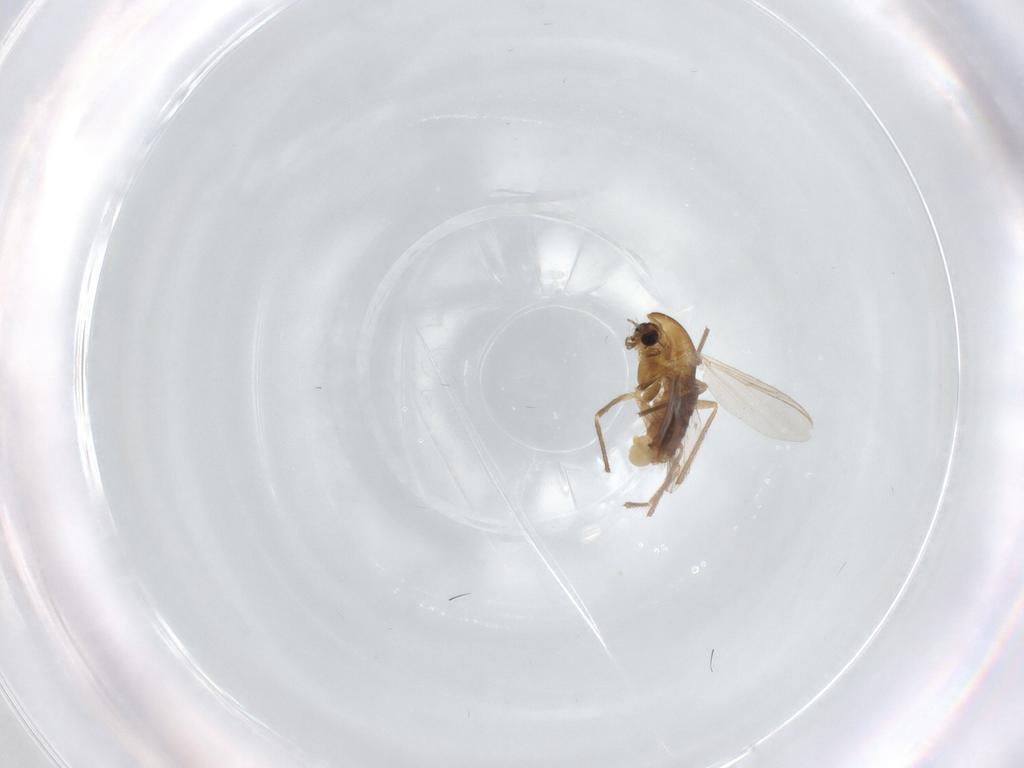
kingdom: Animalia
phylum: Arthropoda
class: Insecta
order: Diptera
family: Chironomidae
